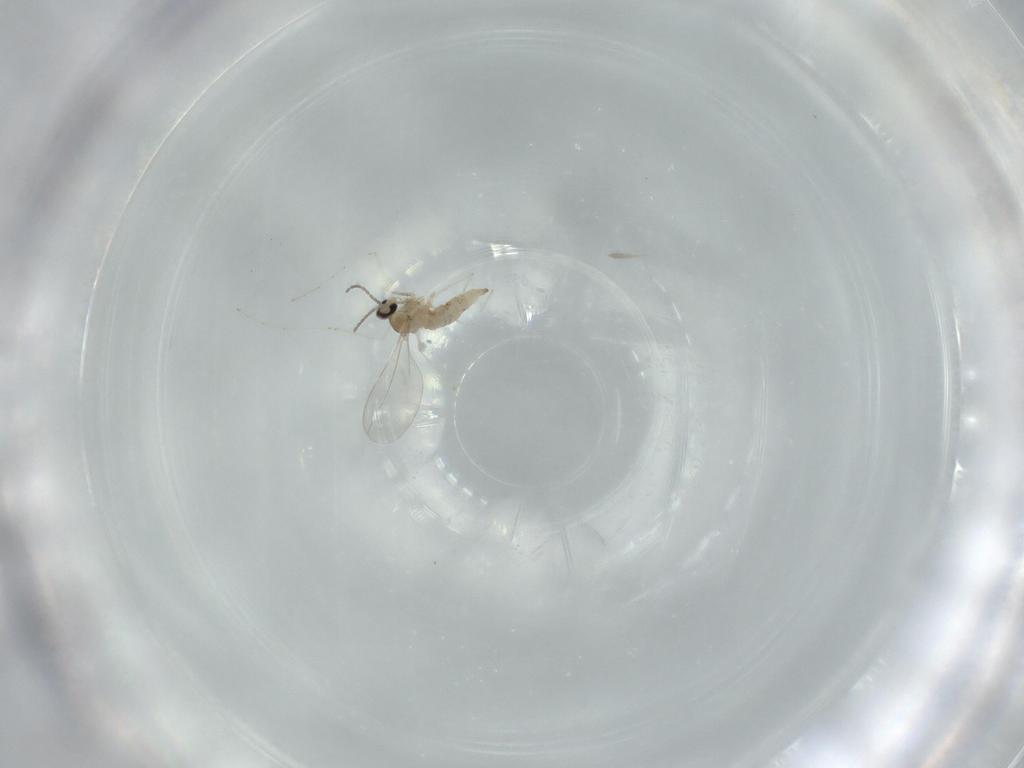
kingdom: Animalia
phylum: Arthropoda
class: Insecta
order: Diptera
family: Cecidomyiidae
